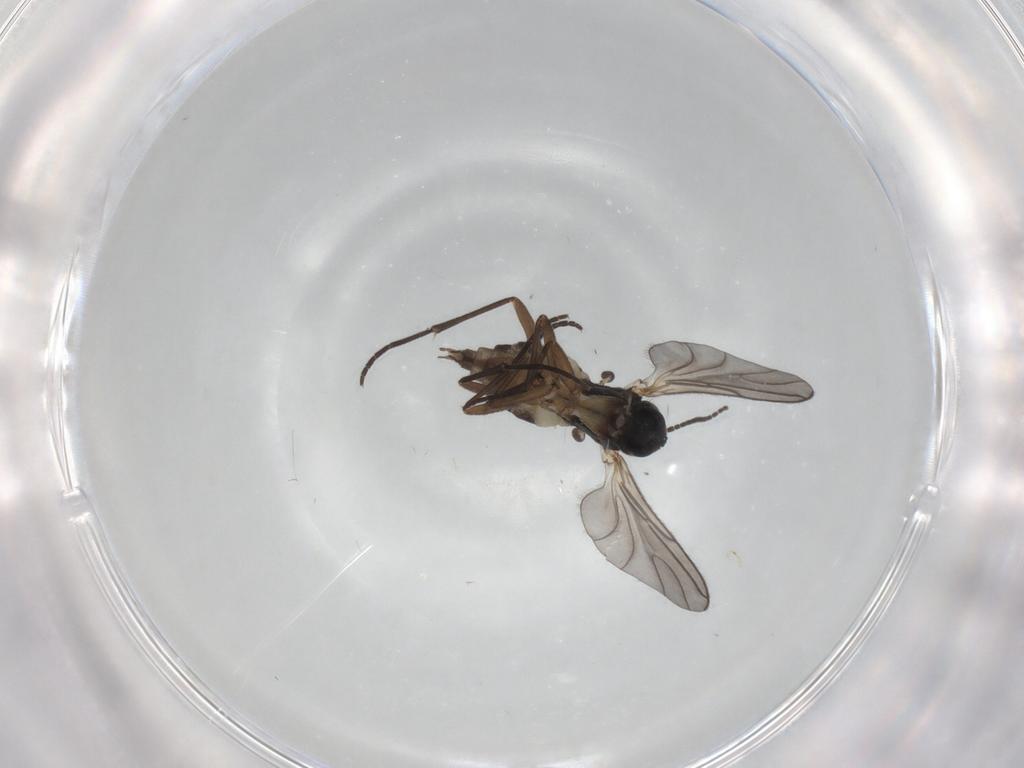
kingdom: Animalia
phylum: Arthropoda
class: Insecta
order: Diptera
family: Sciaridae
